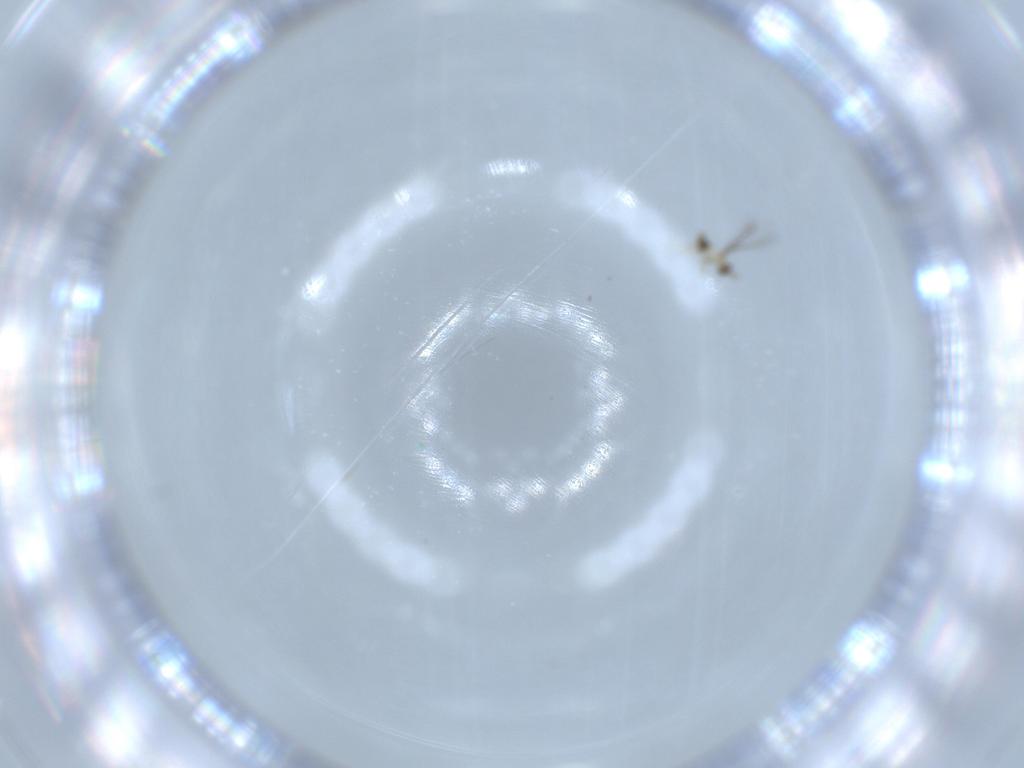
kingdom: Animalia
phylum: Arthropoda
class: Insecta
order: Hymenoptera
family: Mymaridae
